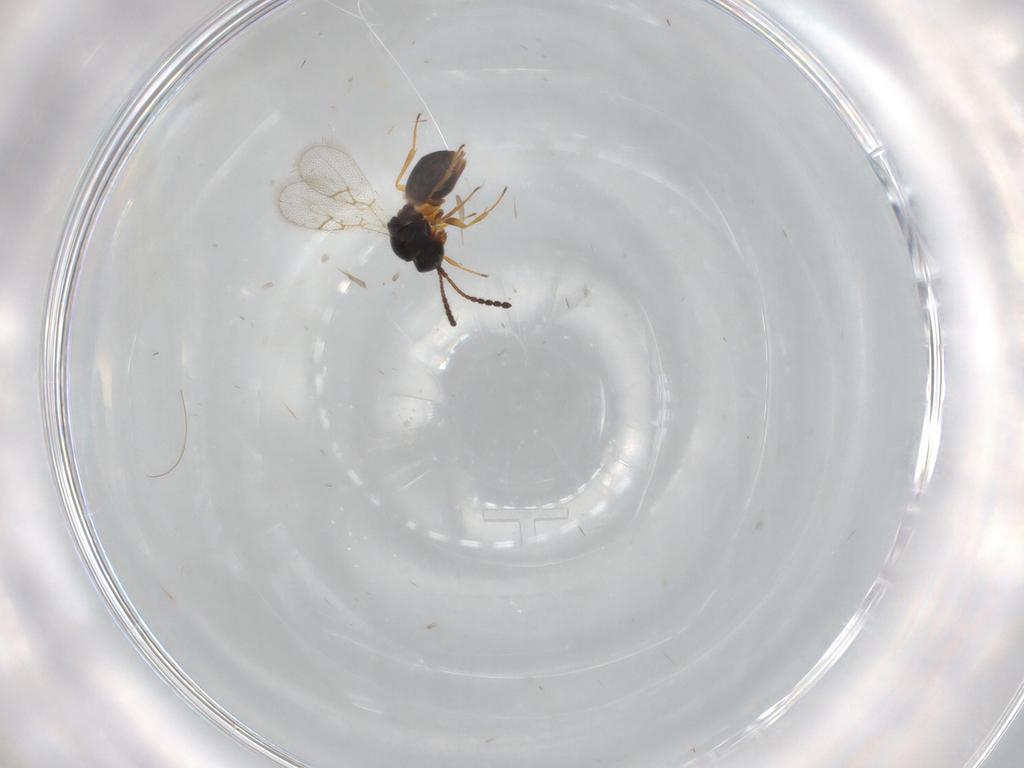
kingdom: Animalia
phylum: Arthropoda
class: Insecta
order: Hymenoptera
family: Figitidae
